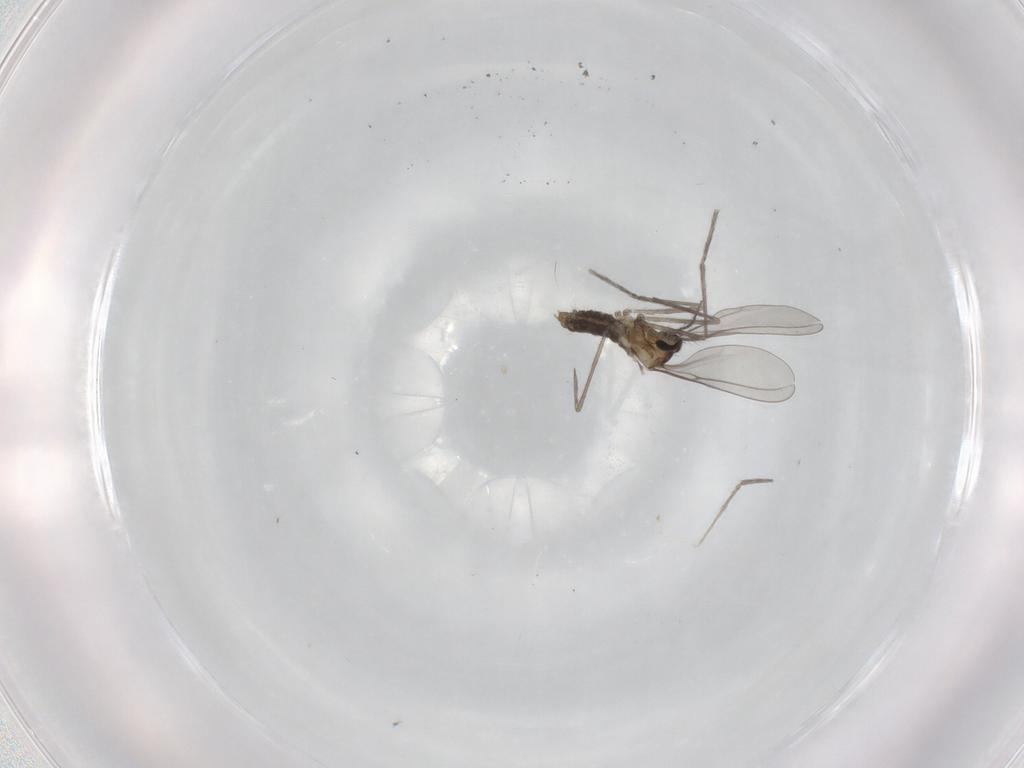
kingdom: Animalia
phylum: Arthropoda
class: Insecta
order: Diptera
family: Cecidomyiidae
